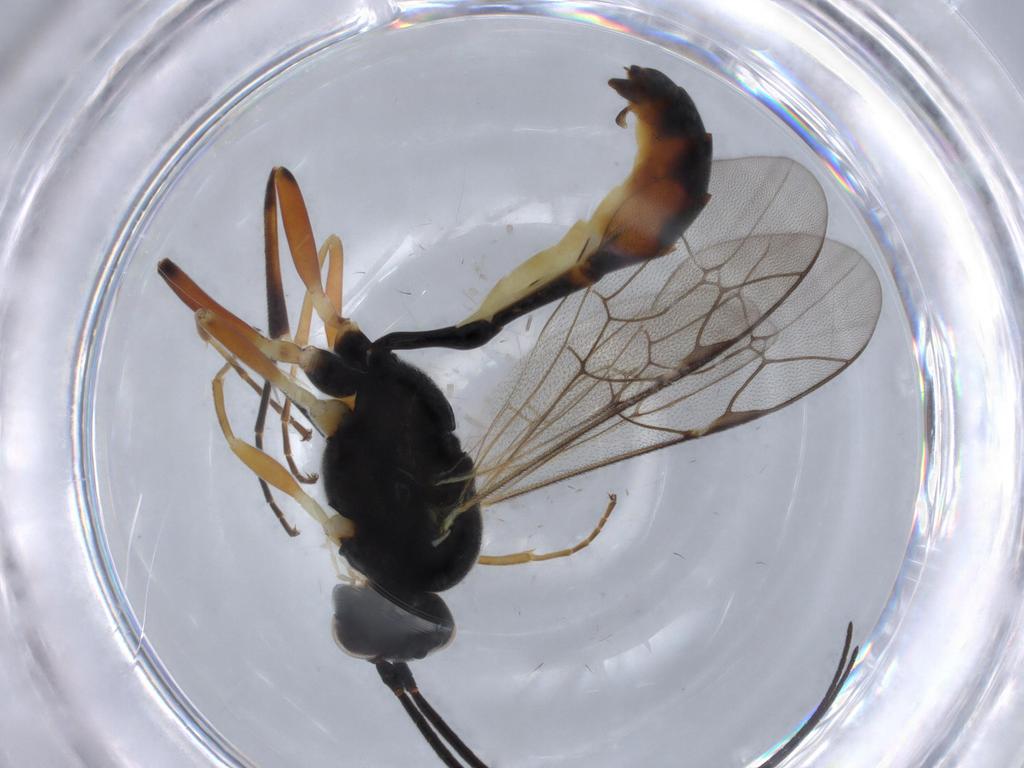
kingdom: Animalia
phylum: Arthropoda
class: Insecta
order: Hymenoptera
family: Ichneumonidae
